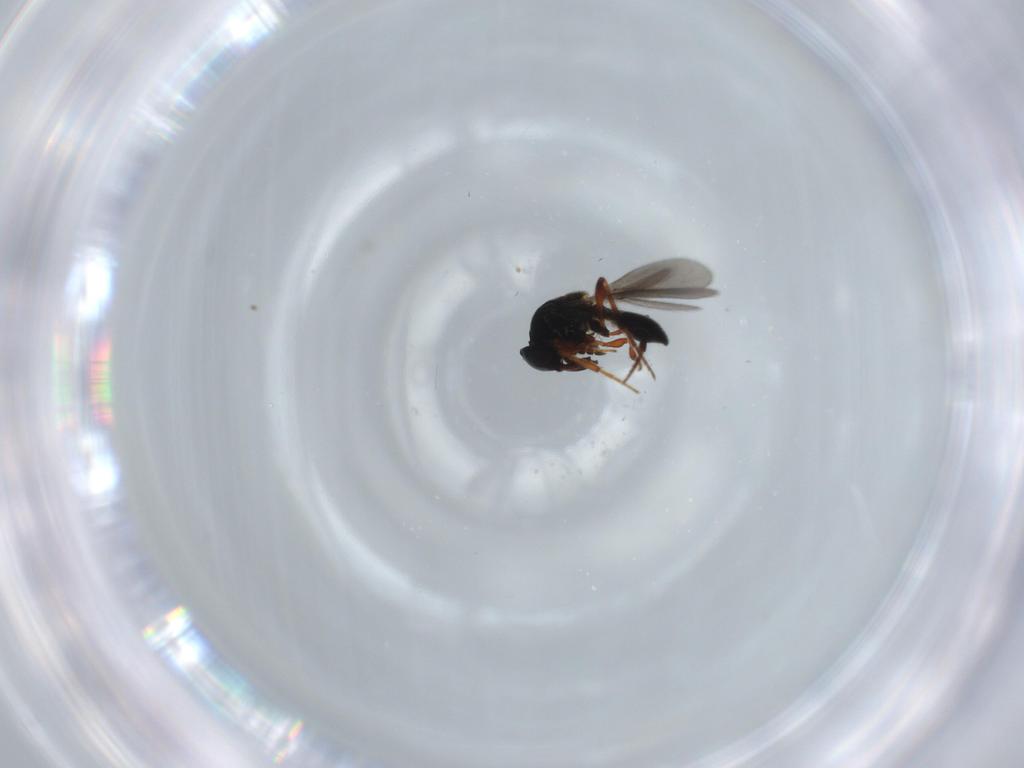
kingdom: Animalia
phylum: Arthropoda
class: Insecta
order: Hymenoptera
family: Platygastridae
